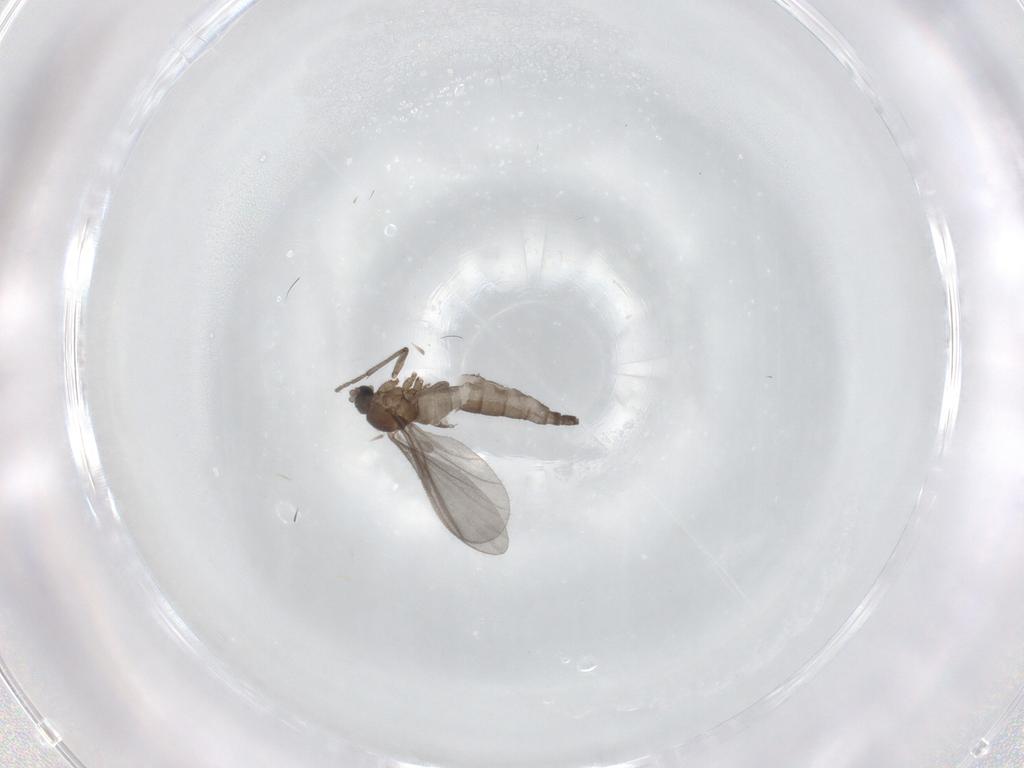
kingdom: Animalia
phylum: Arthropoda
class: Insecta
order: Diptera
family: Sciaridae
